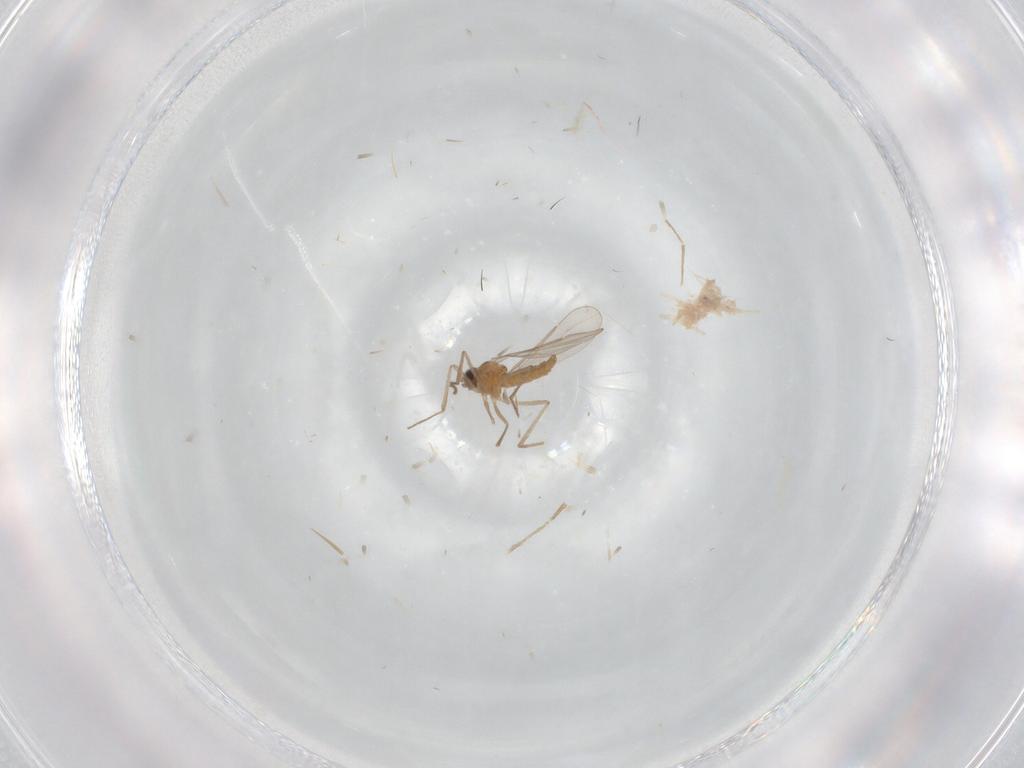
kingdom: Animalia
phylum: Arthropoda
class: Insecta
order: Diptera
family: Cecidomyiidae
